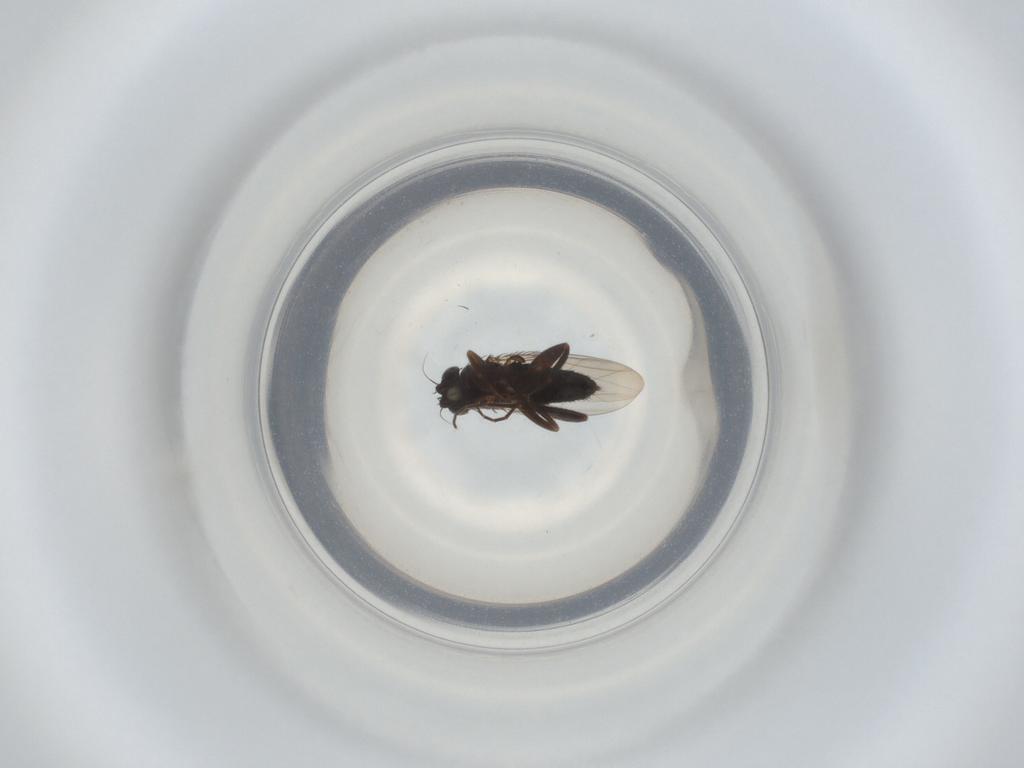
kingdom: Animalia
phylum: Arthropoda
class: Insecta
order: Diptera
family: Phoridae
